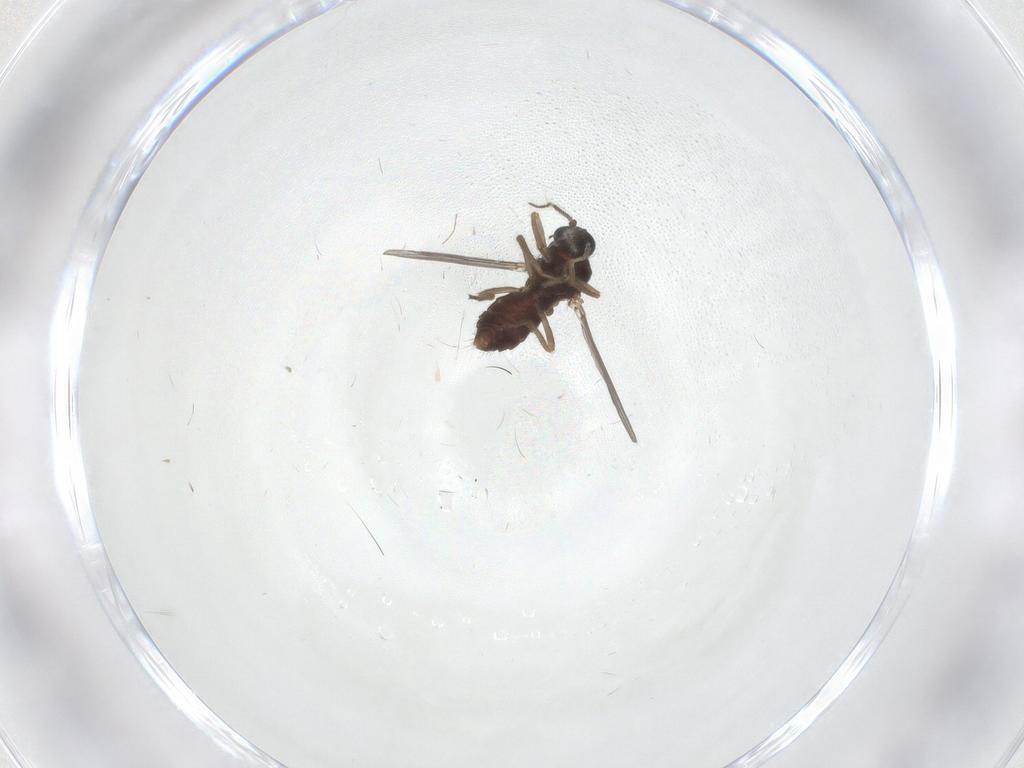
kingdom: Animalia
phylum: Arthropoda
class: Insecta
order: Diptera
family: Ceratopogonidae
